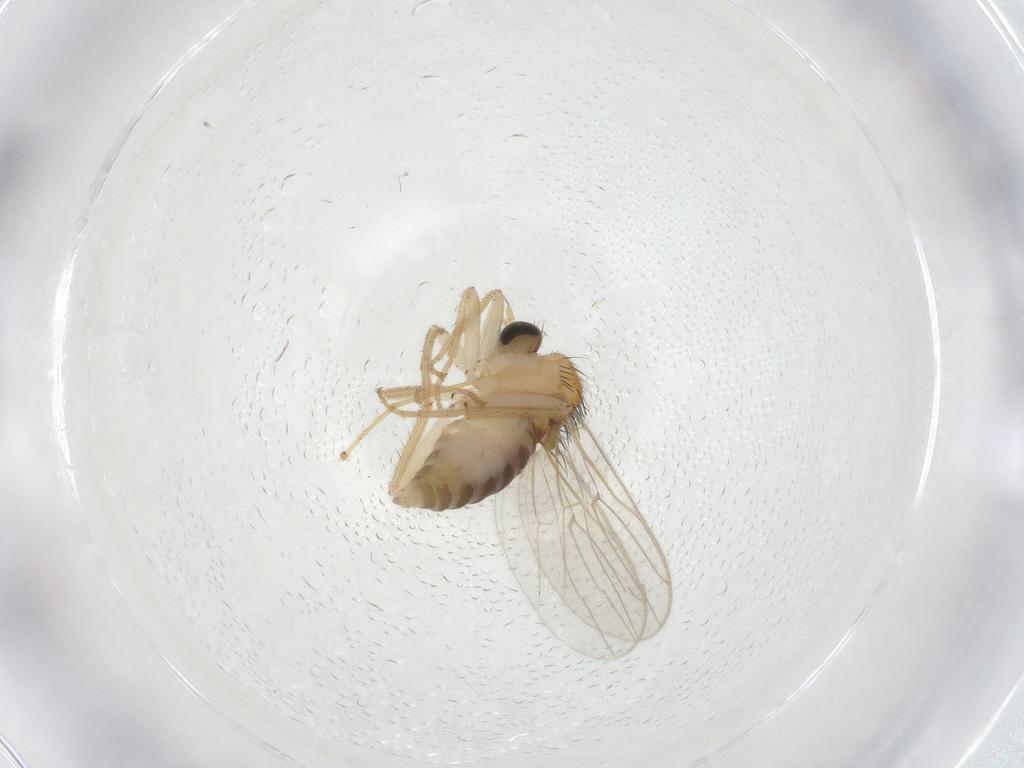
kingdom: Animalia
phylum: Arthropoda
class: Insecta
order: Diptera
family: Hybotidae
